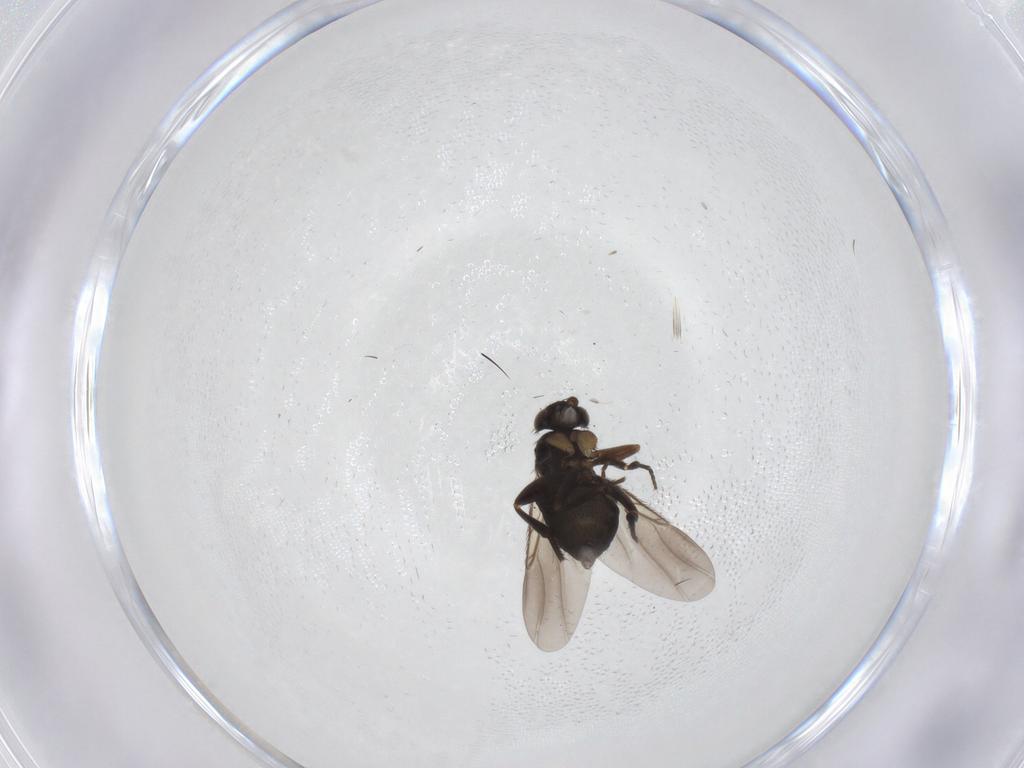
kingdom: Animalia
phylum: Arthropoda
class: Insecta
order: Diptera
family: Phoridae
